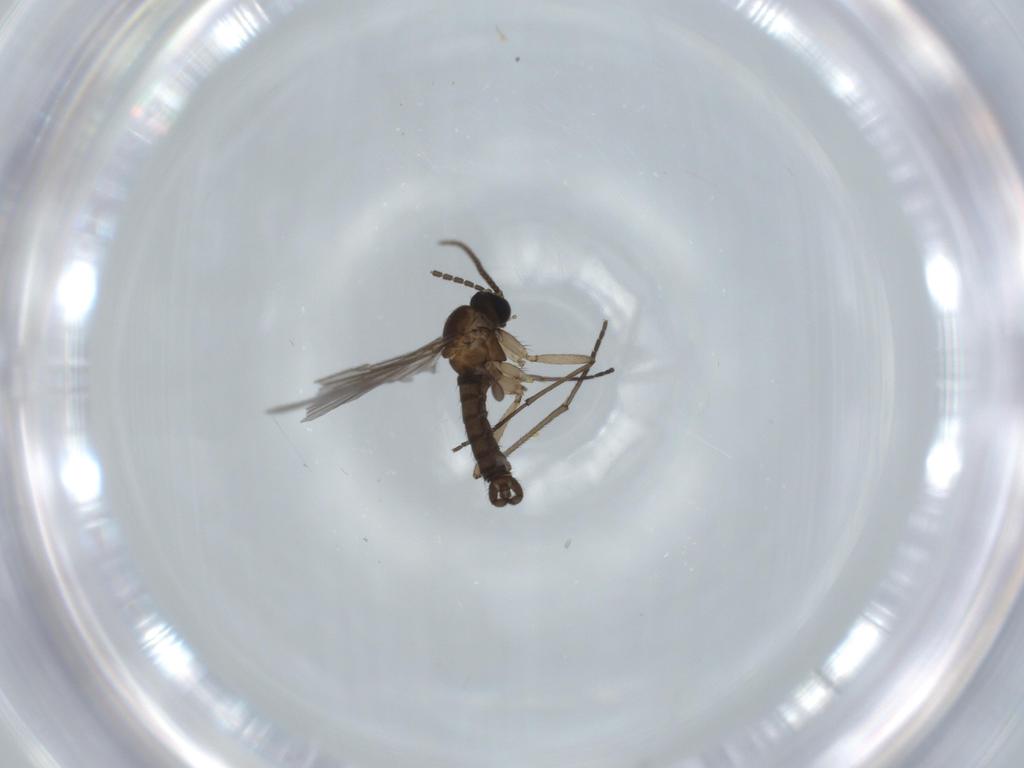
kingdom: Animalia
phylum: Arthropoda
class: Insecta
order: Diptera
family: Sciaridae
